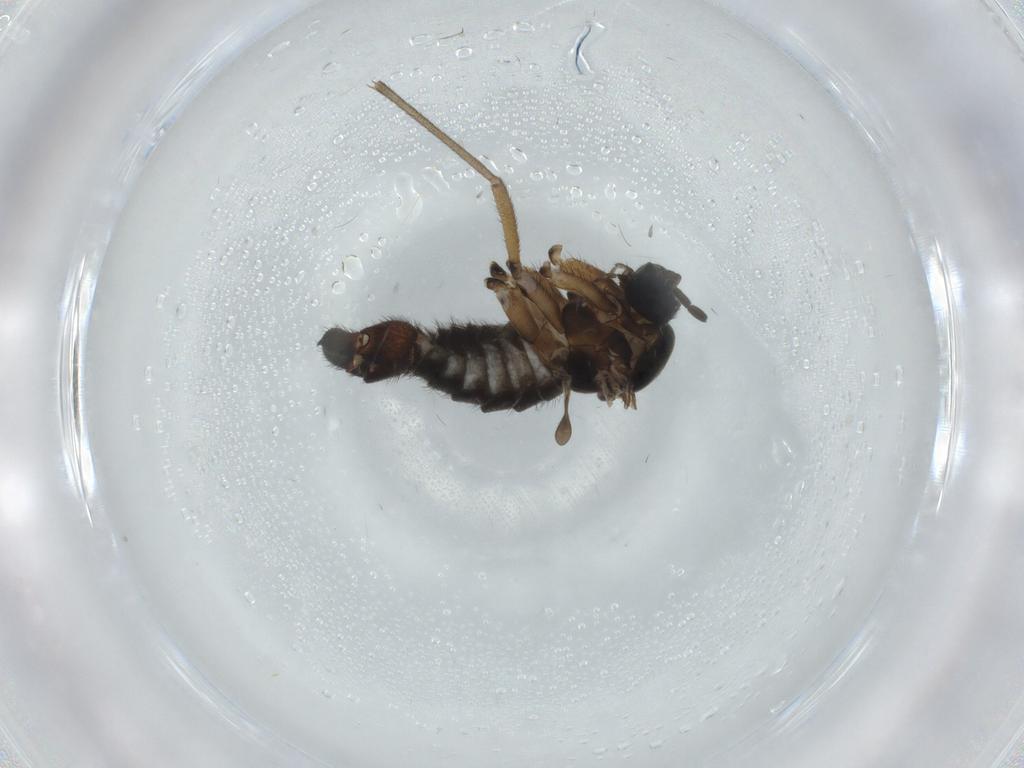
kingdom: Animalia
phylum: Arthropoda
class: Insecta
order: Diptera
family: Sciaridae
